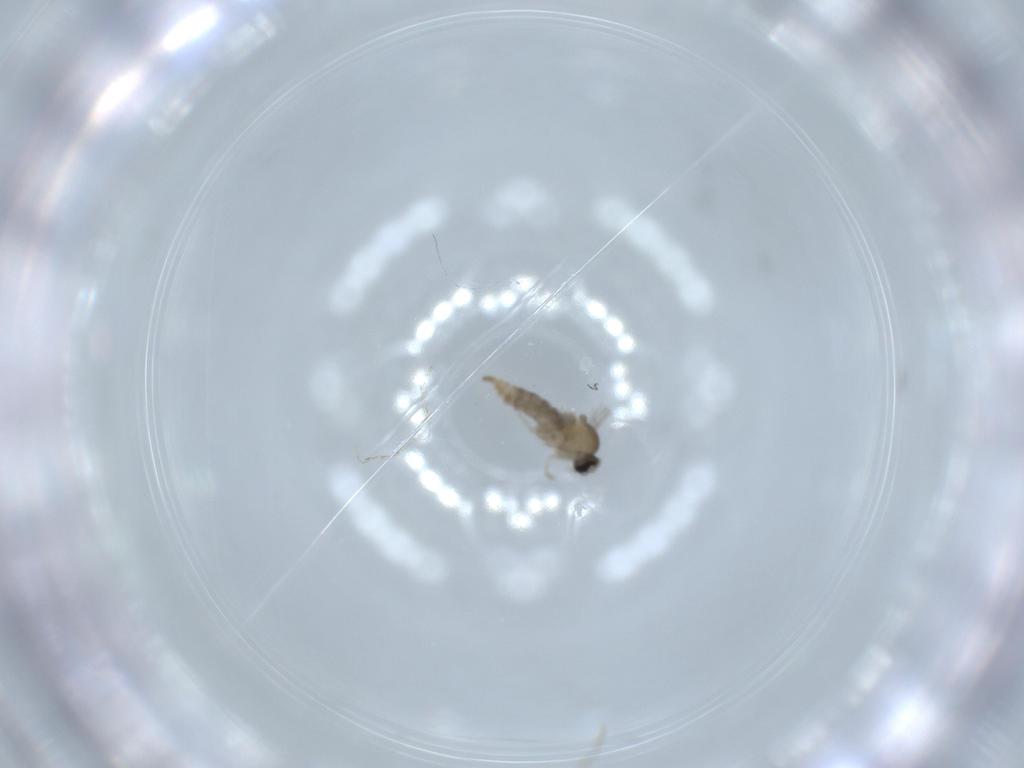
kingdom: Animalia
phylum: Arthropoda
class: Insecta
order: Diptera
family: Cecidomyiidae
